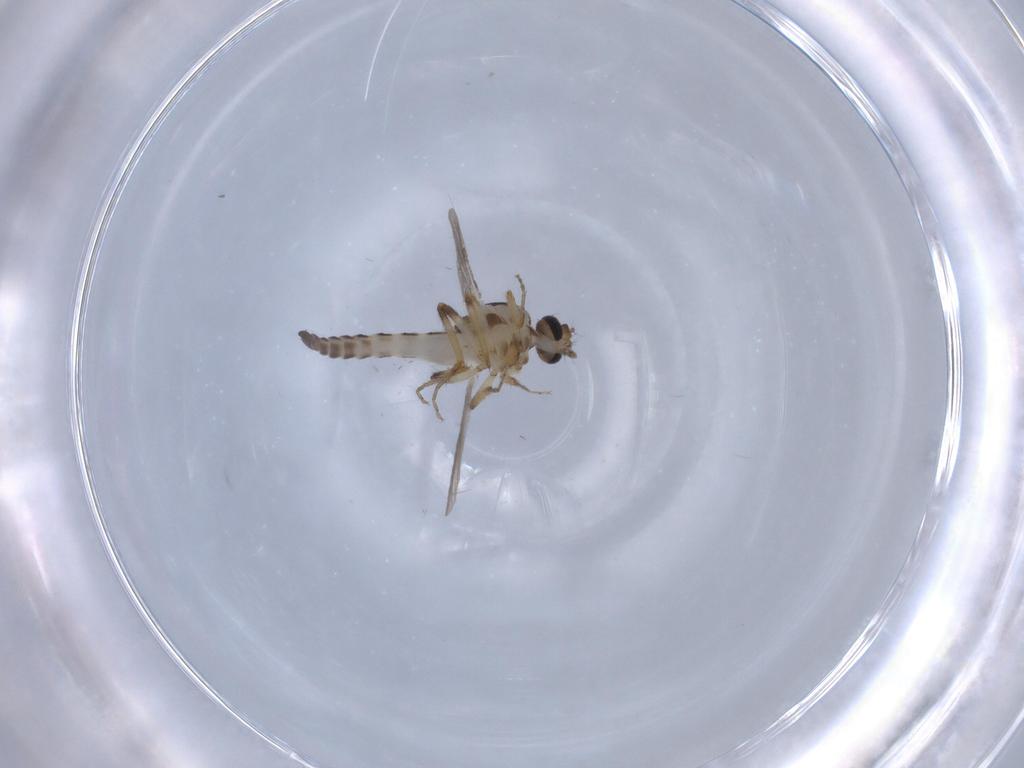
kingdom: Animalia
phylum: Arthropoda
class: Insecta
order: Diptera
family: Ceratopogonidae
